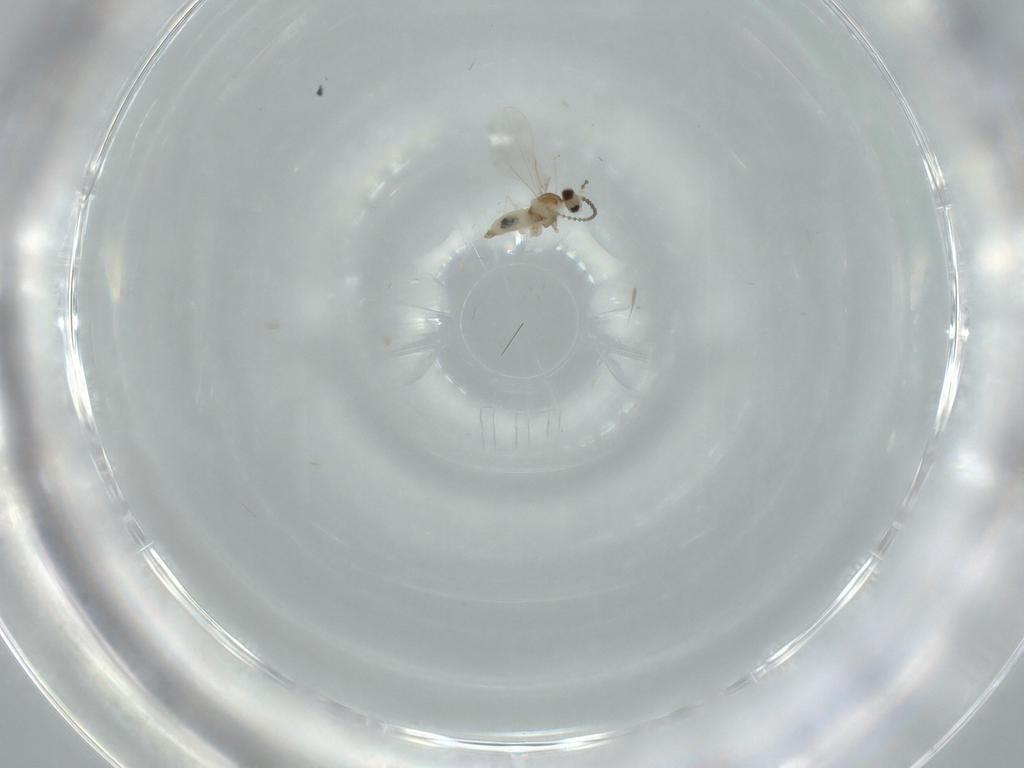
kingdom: Animalia
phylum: Arthropoda
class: Insecta
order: Diptera
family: Cecidomyiidae
